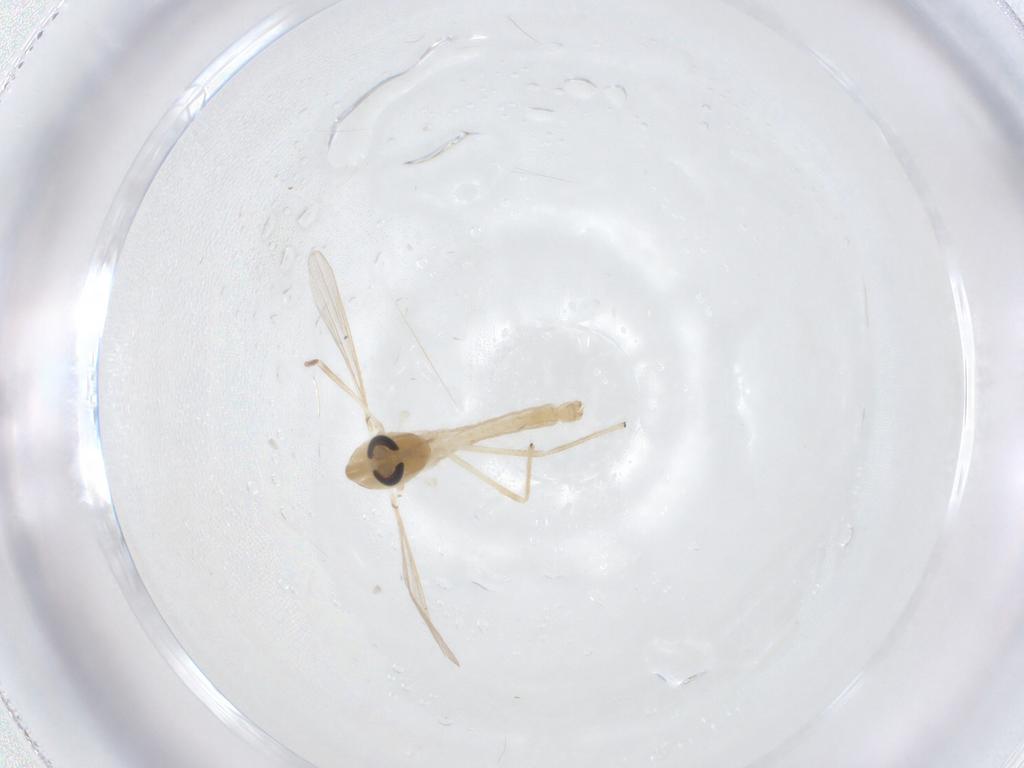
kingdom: Animalia
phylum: Arthropoda
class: Insecta
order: Diptera
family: Chironomidae
